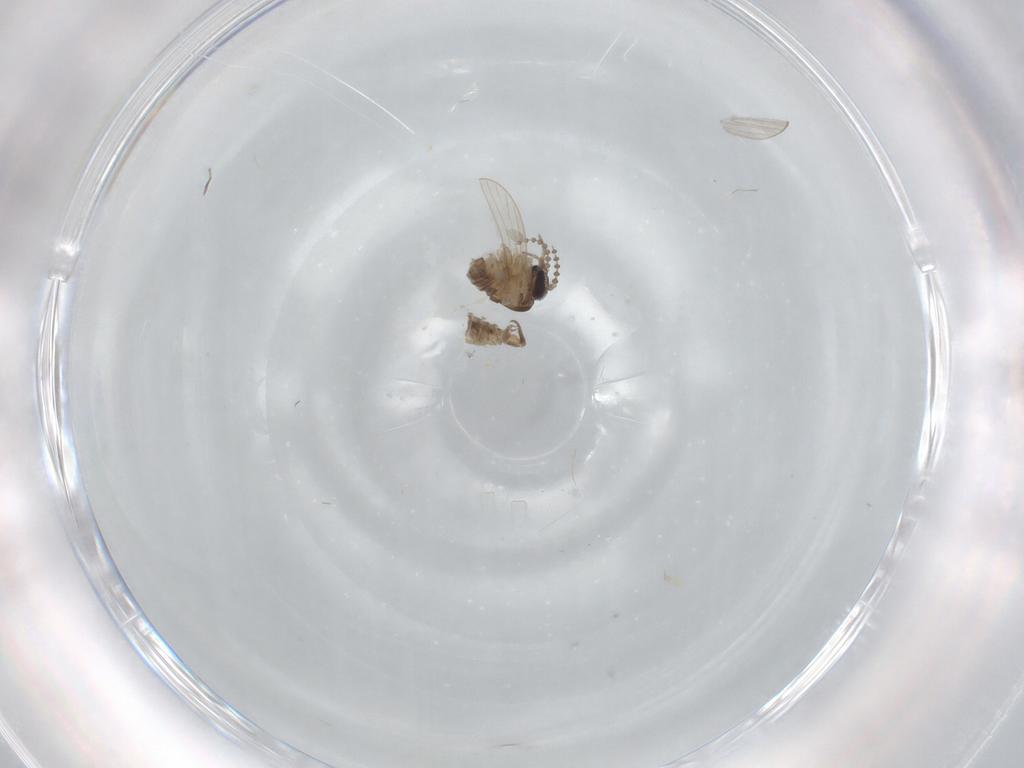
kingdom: Animalia
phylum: Arthropoda
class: Insecta
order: Diptera
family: Psychodidae
